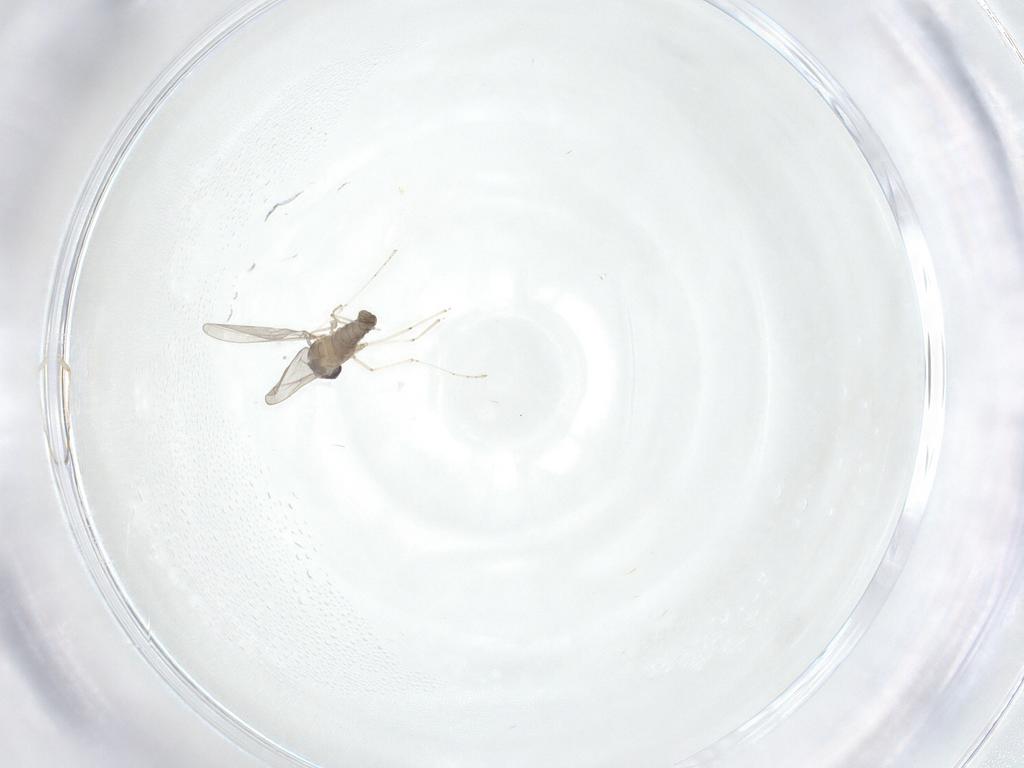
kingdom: Animalia
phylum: Arthropoda
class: Insecta
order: Diptera
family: Cecidomyiidae
